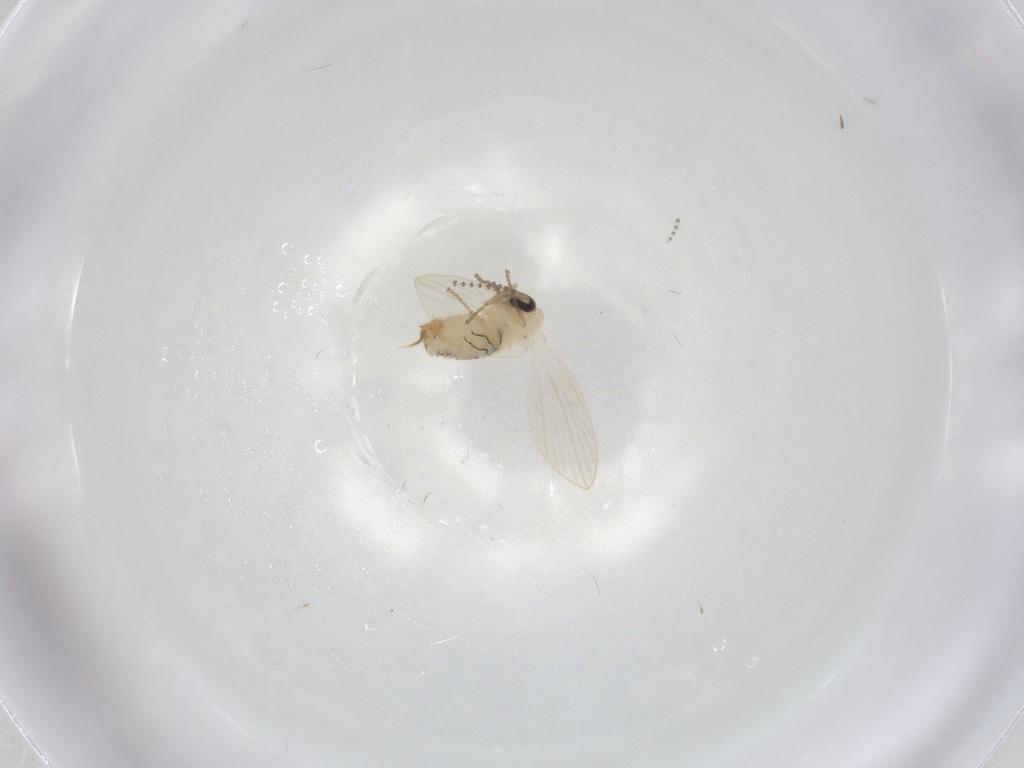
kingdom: Animalia
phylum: Arthropoda
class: Insecta
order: Diptera
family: Psychodidae
